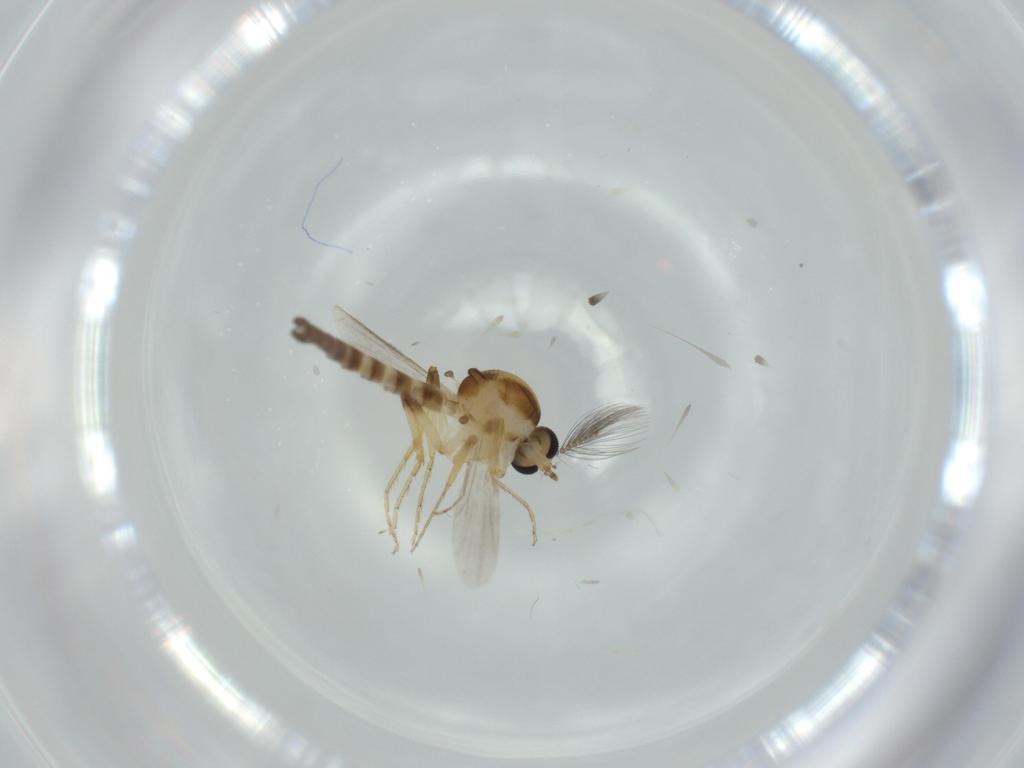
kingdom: Animalia
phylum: Arthropoda
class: Insecta
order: Diptera
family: Ceratopogonidae
